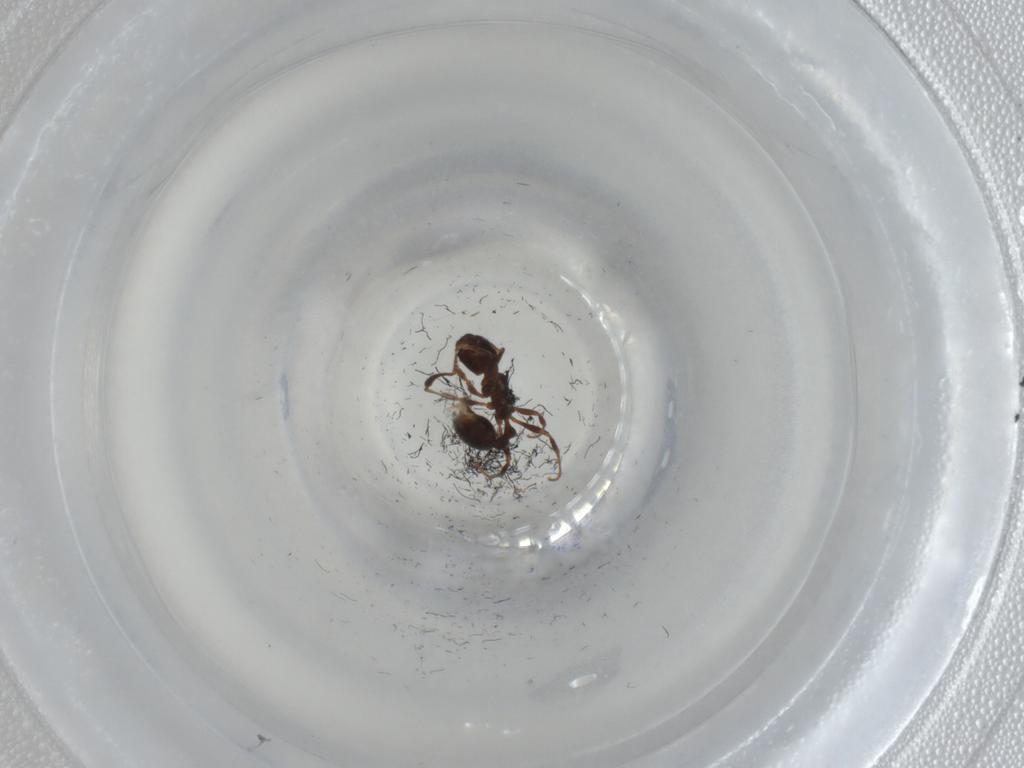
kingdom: Animalia
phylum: Arthropoda
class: Insecta
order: Hymenoptera
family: Formicidae
